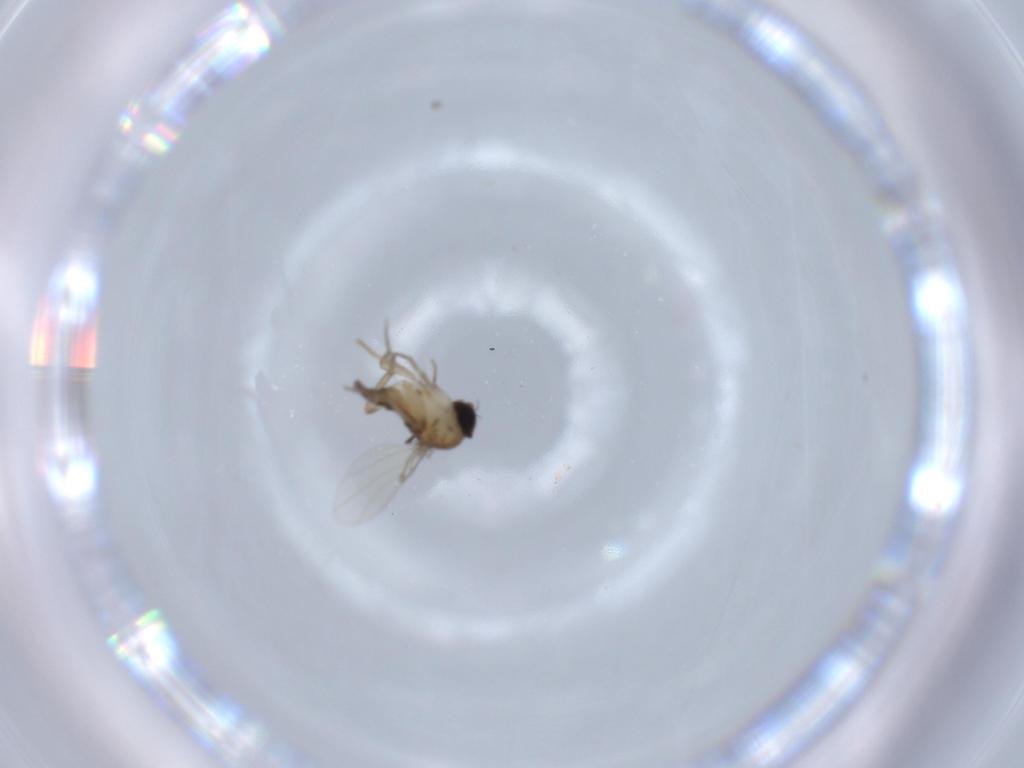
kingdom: Animalia
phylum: Arthropoda
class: Insecta
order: Diptera
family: Phoridae
